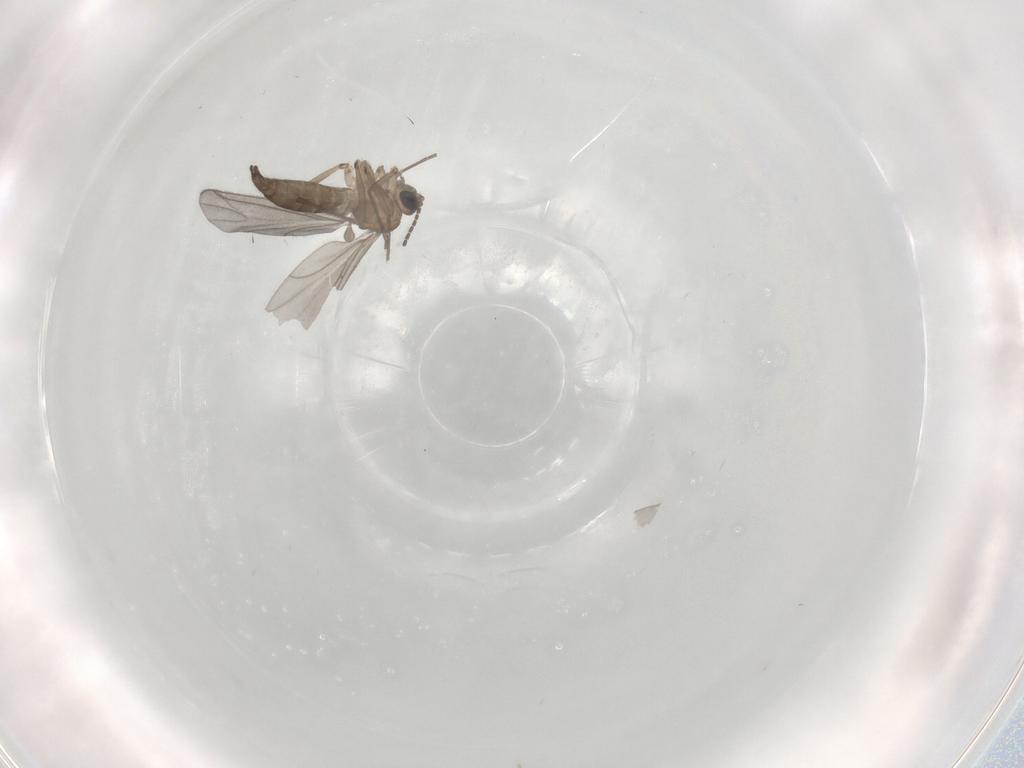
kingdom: Animalia
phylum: Arthropoda
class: Insecta
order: Diptera
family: Sciaridae
